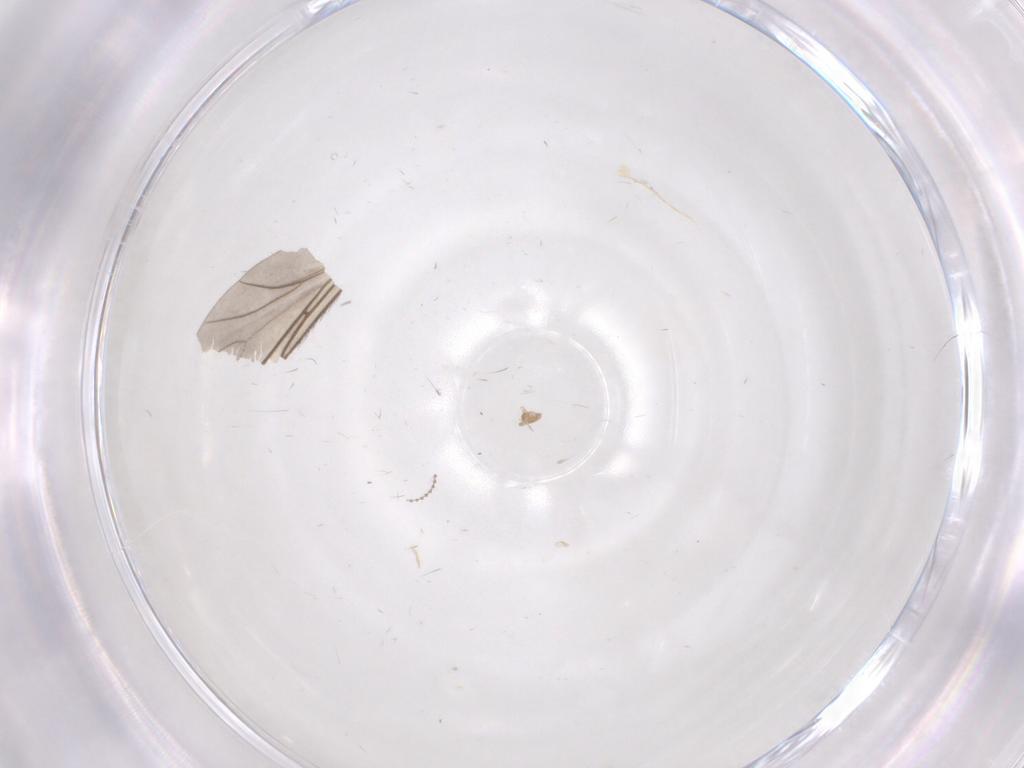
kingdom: Animalia
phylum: Arthropoda
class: Insecta
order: Diptera
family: Phoridae
